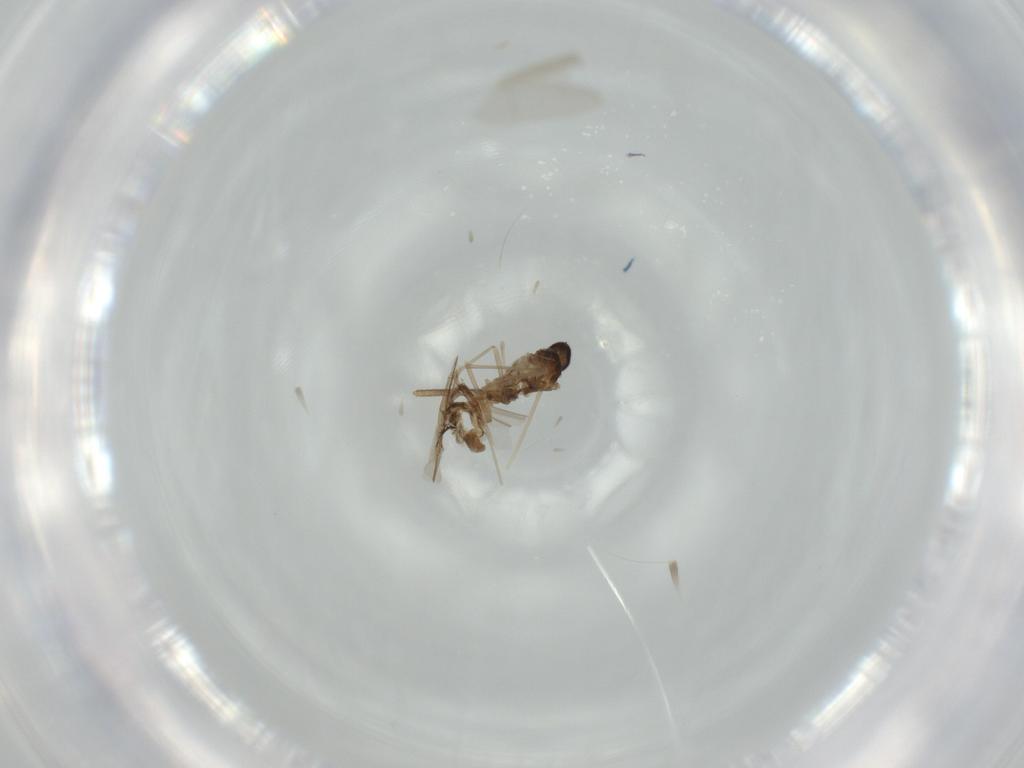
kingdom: Animalia
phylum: Arthropoda
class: Insecta
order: Diptera
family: Cecidomyiidae
